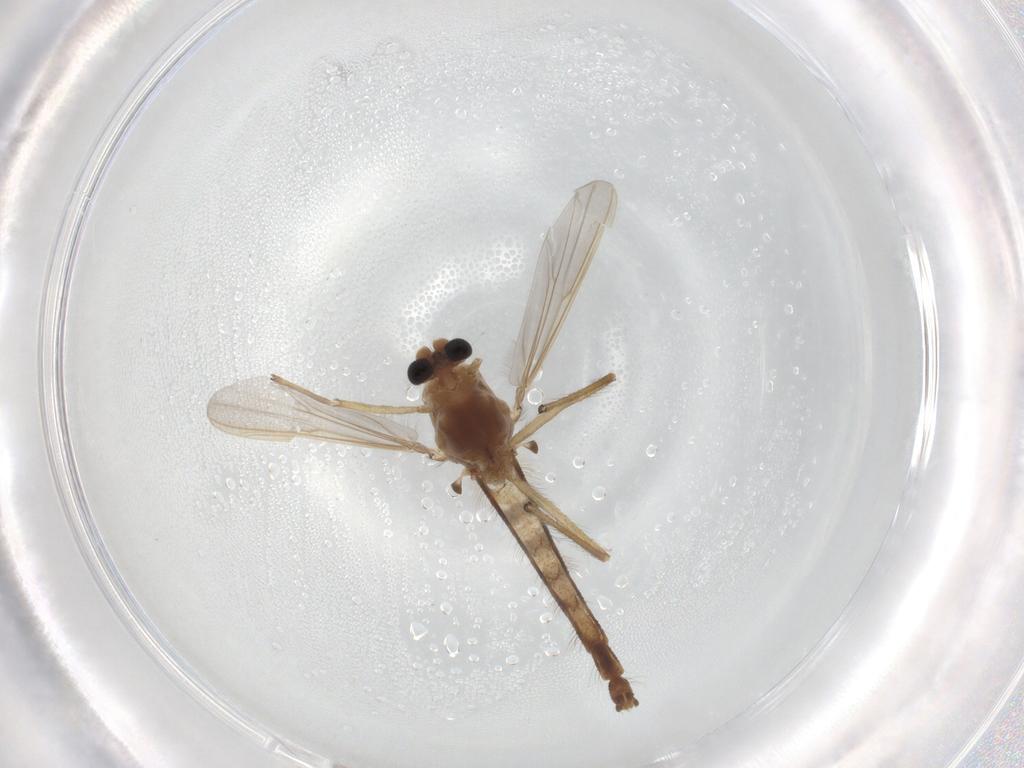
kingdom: Animalia
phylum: Arthropoda
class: Insecta
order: Diptera
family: Chironomidae
